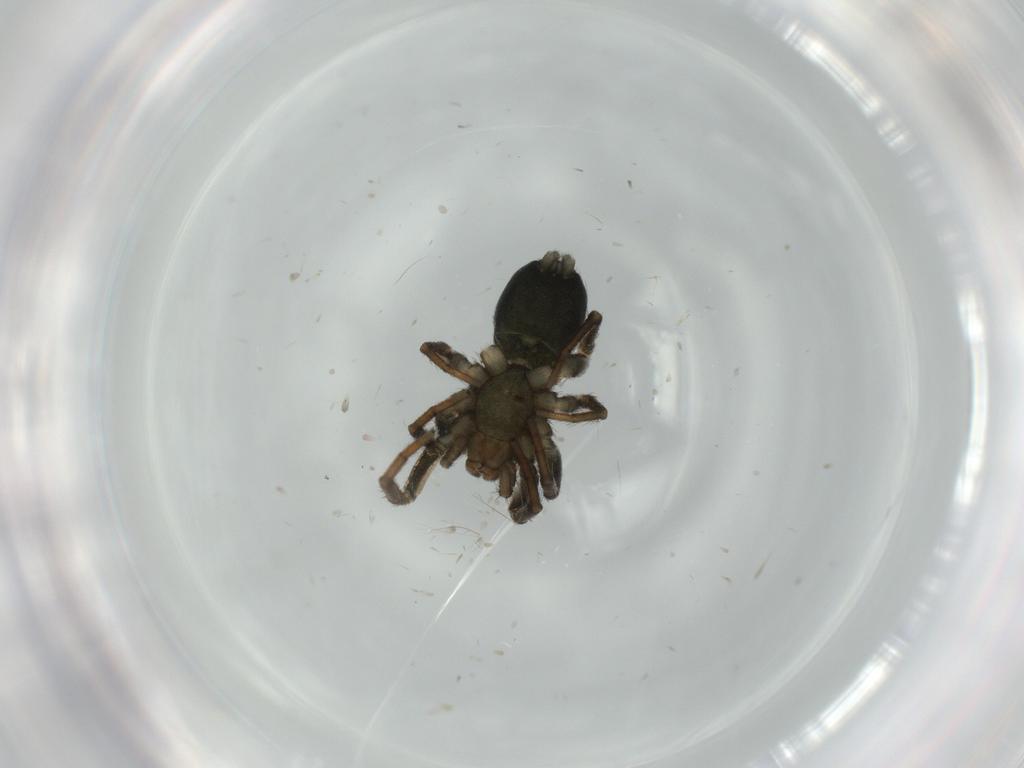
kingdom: Animalia
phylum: Arthropoda
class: Arachnida
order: Araneae
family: Gnaphosidae
